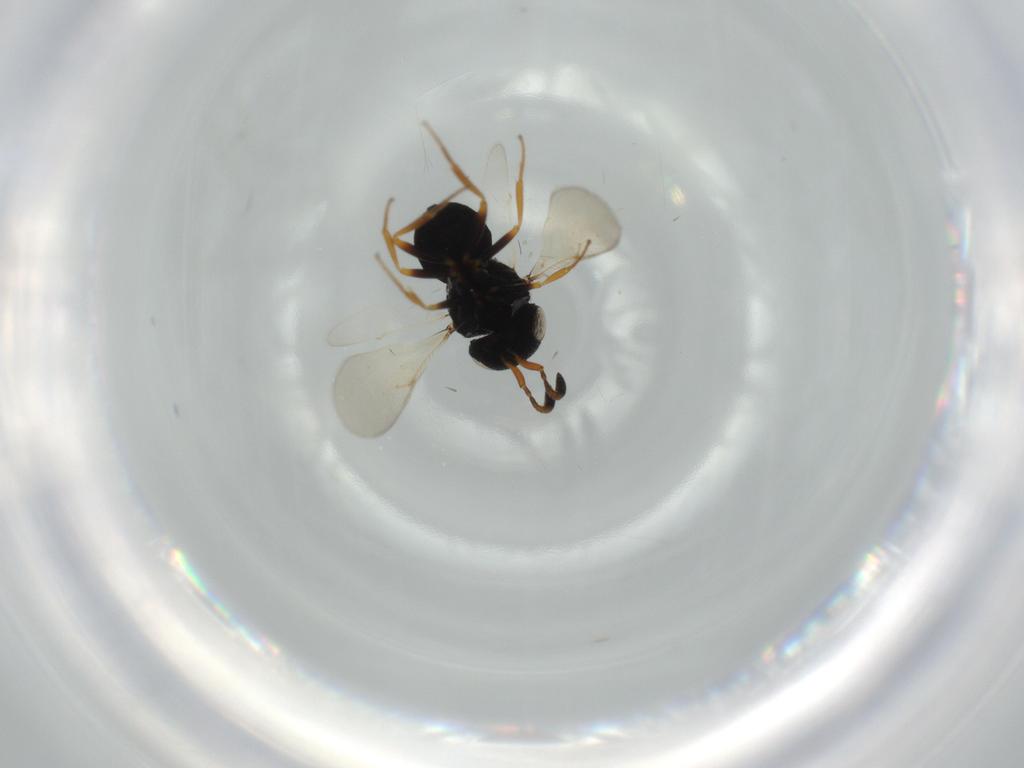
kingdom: Animalia
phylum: Arthropoda
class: Insecta
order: Hymenoptera
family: Scelionidae
